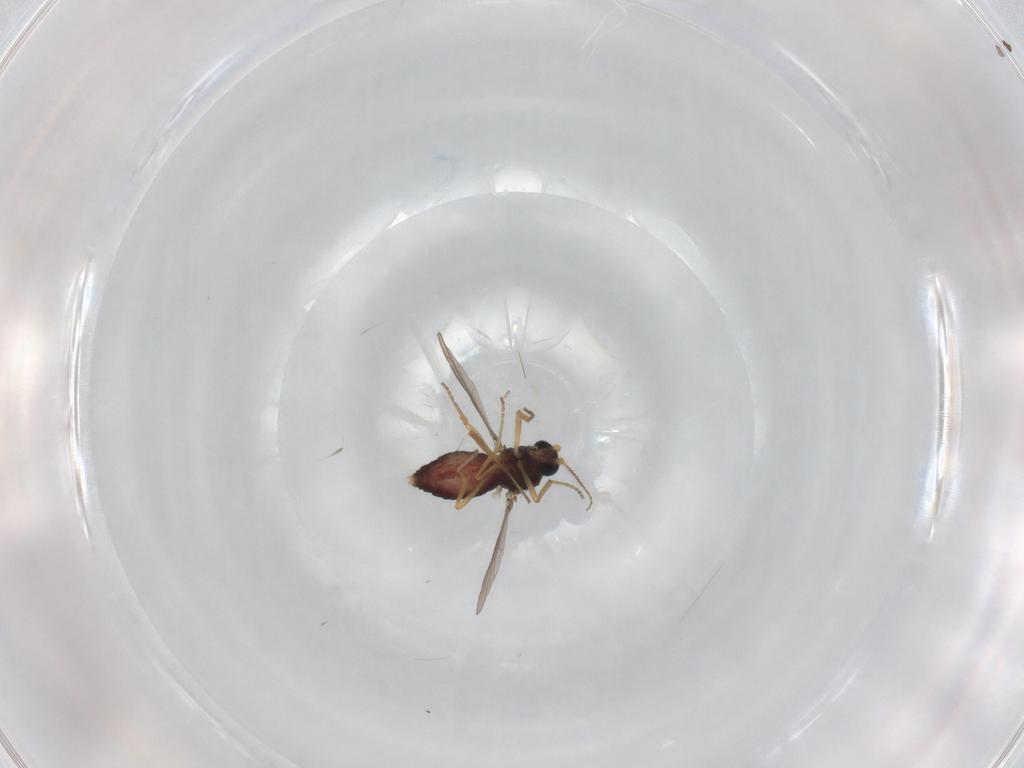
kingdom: Animalia
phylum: Arthropoda
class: Insecta
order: Diptera
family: Ceratopogonidae
